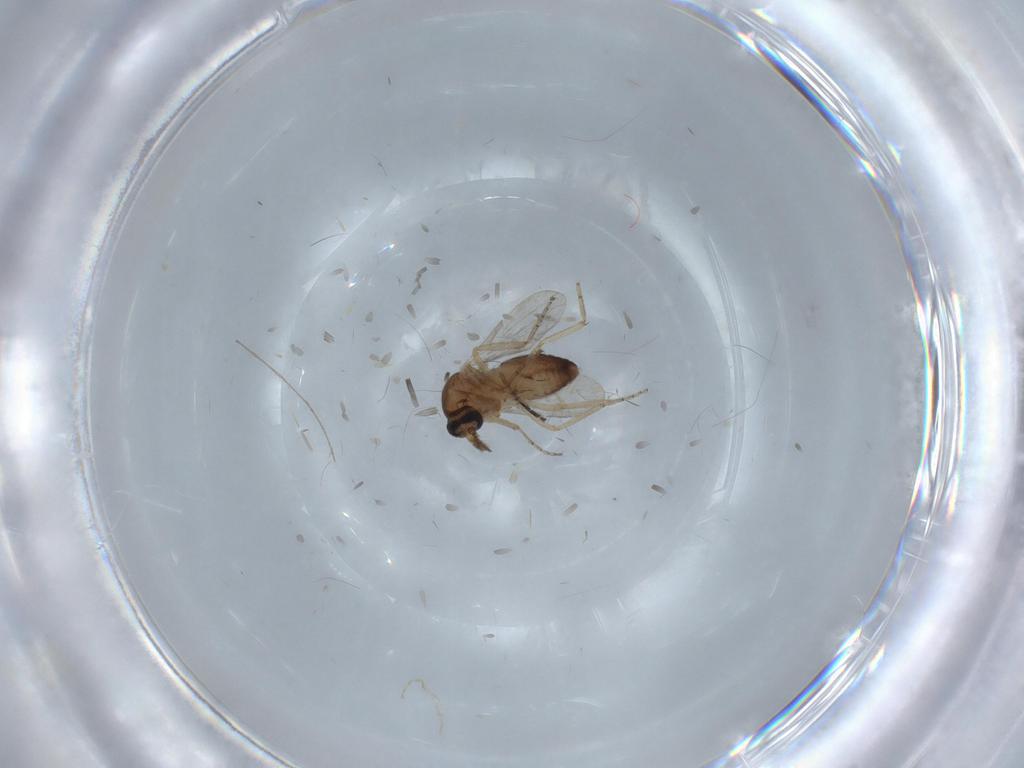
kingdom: Animalia
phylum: Arthropoda
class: Insecta
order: Diptera
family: Ceratopogonidae
